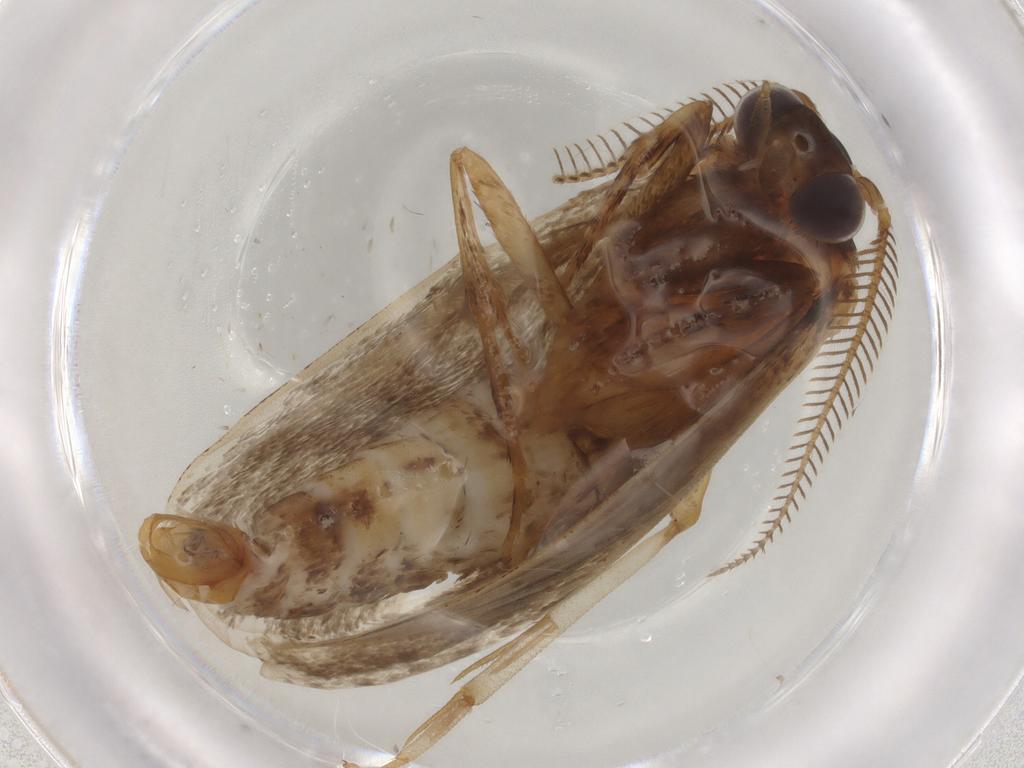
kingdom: Animalia
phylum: Arthropoda
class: Insecta
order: Lepidoptera
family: Eriocottidae
